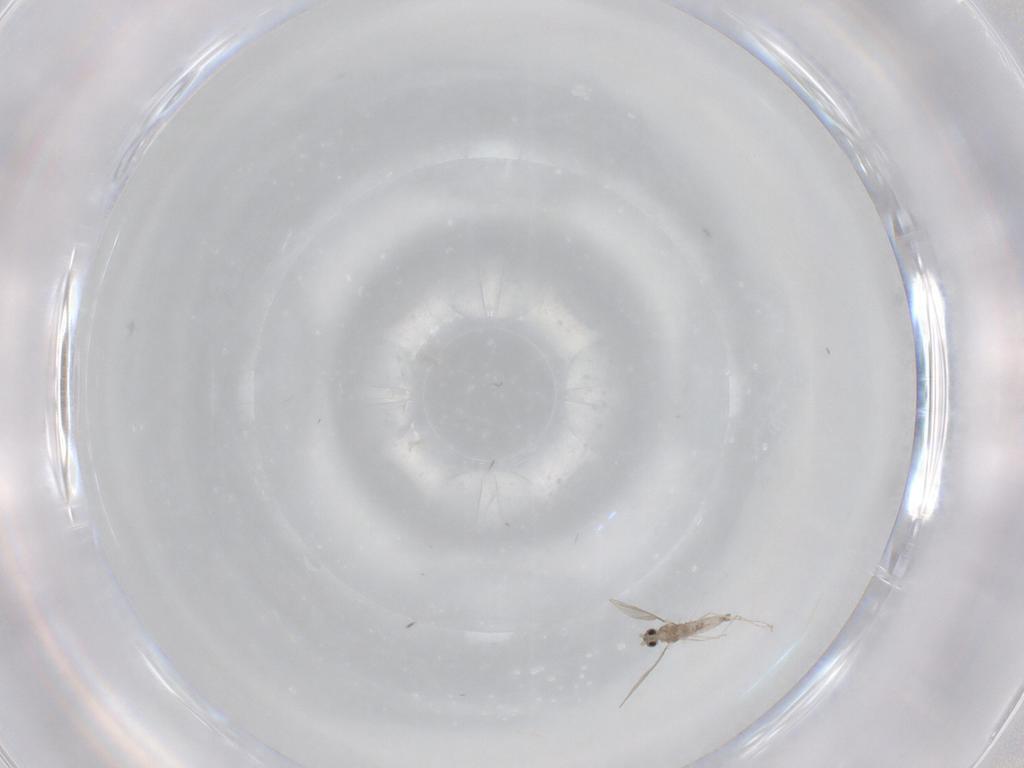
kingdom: Animalia
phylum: Arthropoda
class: Insecta
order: Diptera
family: Cecidomyiidae
